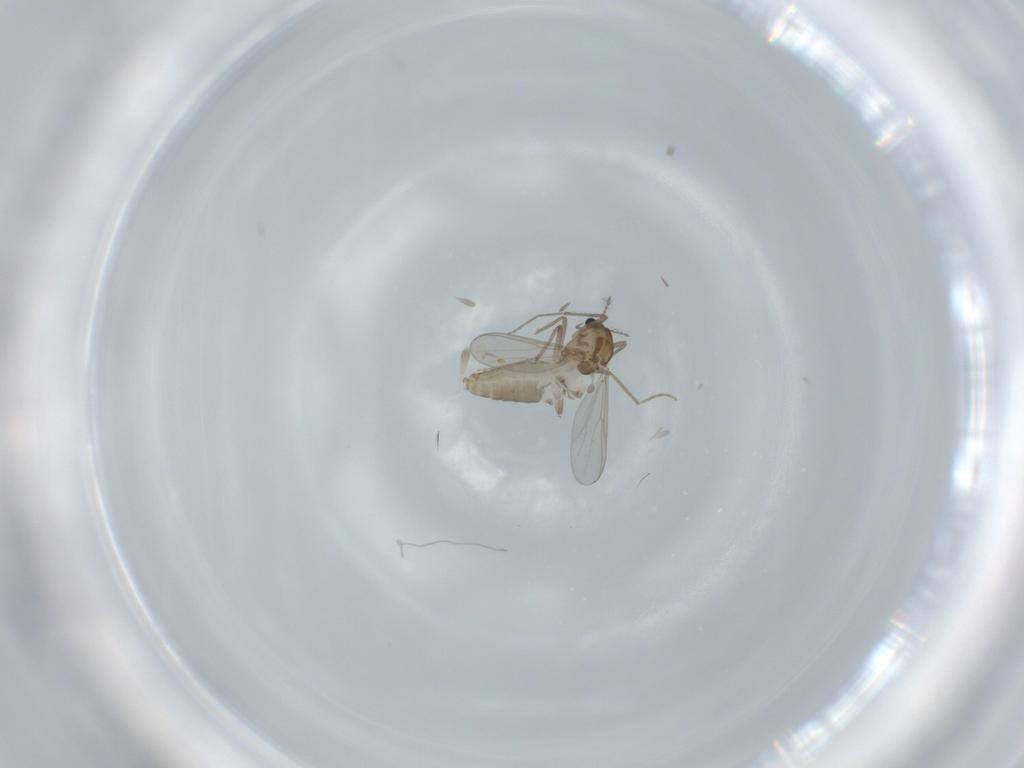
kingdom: Animalia
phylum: Arthropoda
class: Insecta
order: Diptera
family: Chironomidae
